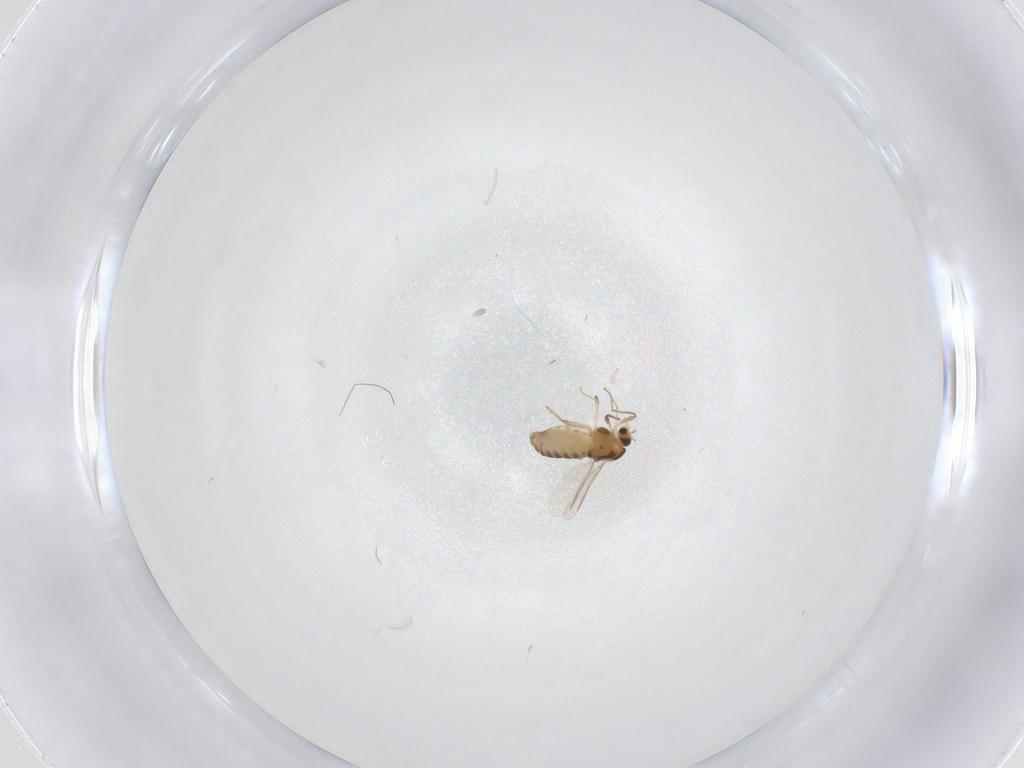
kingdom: Animalia
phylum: Arthropoda
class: Insecta
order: Diptera
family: Chironomidae
